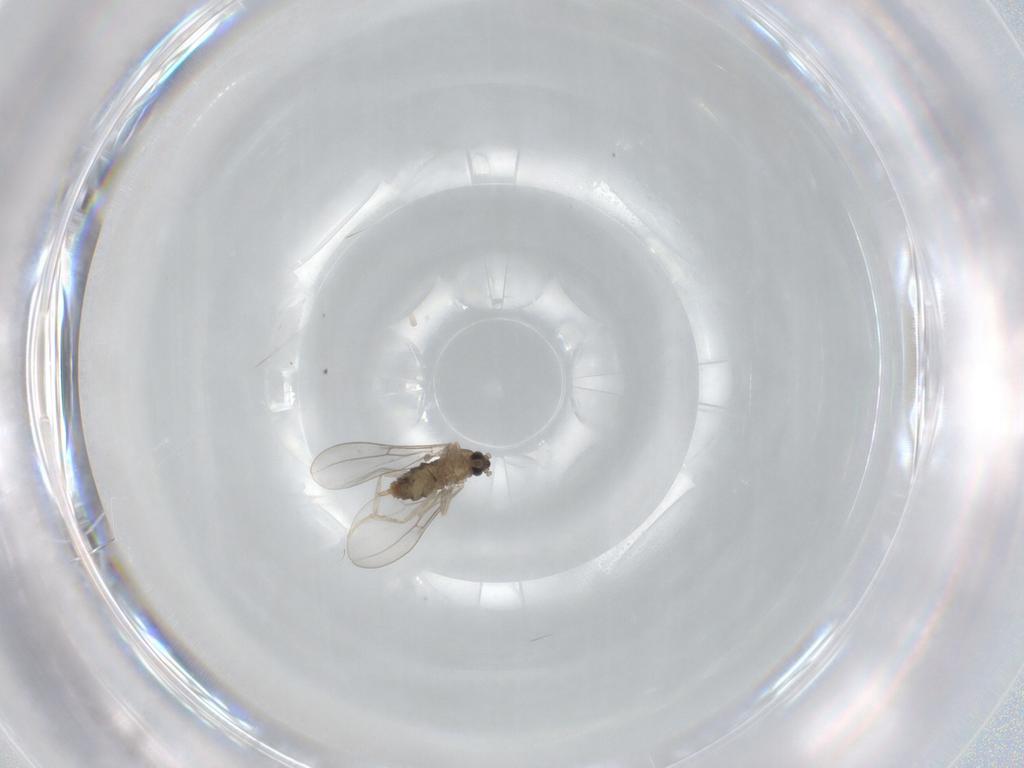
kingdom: Animalia
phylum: Arthropoda
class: Insecta
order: Diptera
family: Cecidomyiidae
